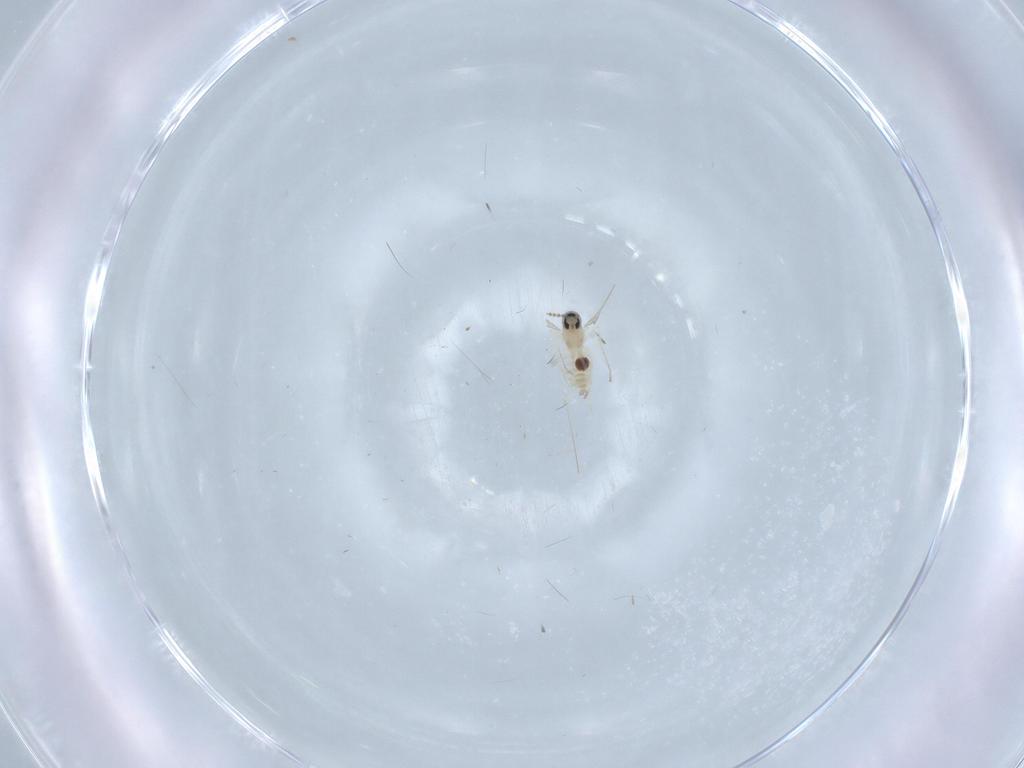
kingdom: Animalia
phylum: Arthropoda
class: Insecta
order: Diptera
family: Cecidomyiidae
